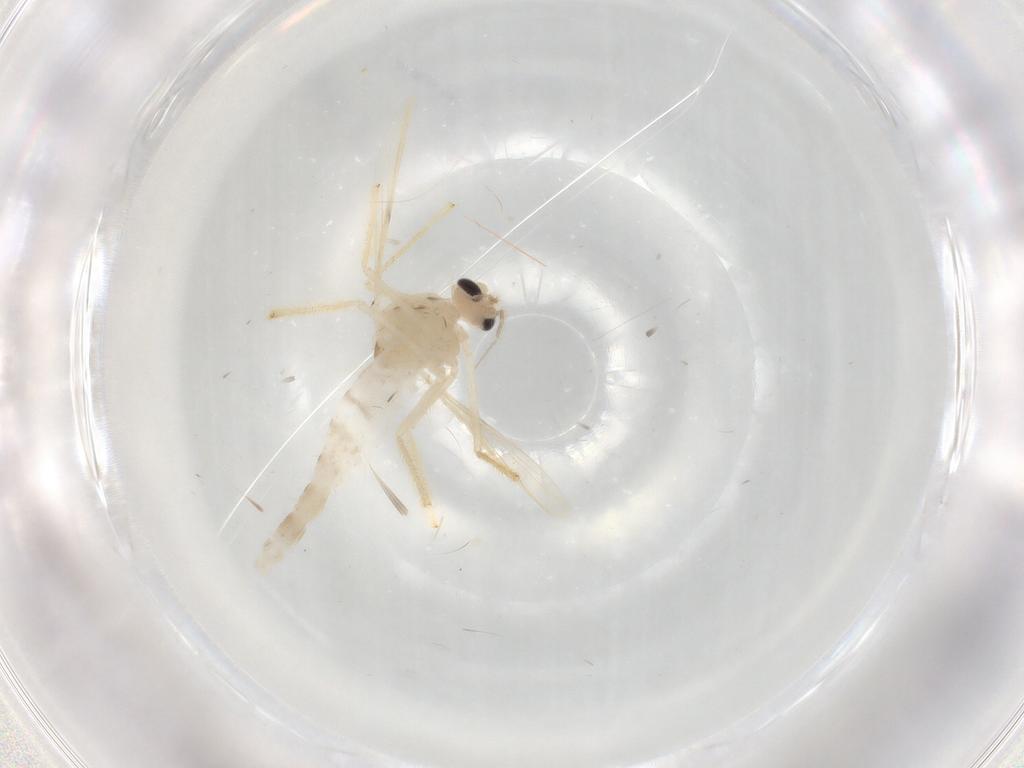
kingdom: Animalia
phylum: Arthropoda
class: Insecta
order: Diptera
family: Chironomidae
